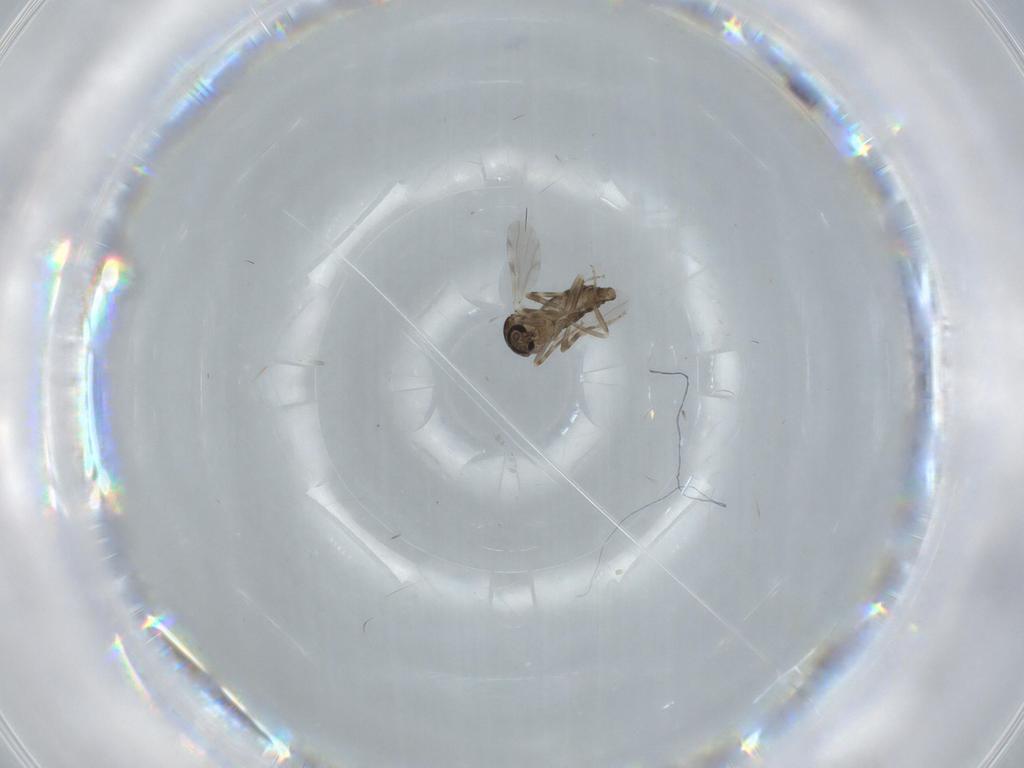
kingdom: Animalia
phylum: Arthropoda
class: Insecta
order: Diptera
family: Ceratopogonidae
